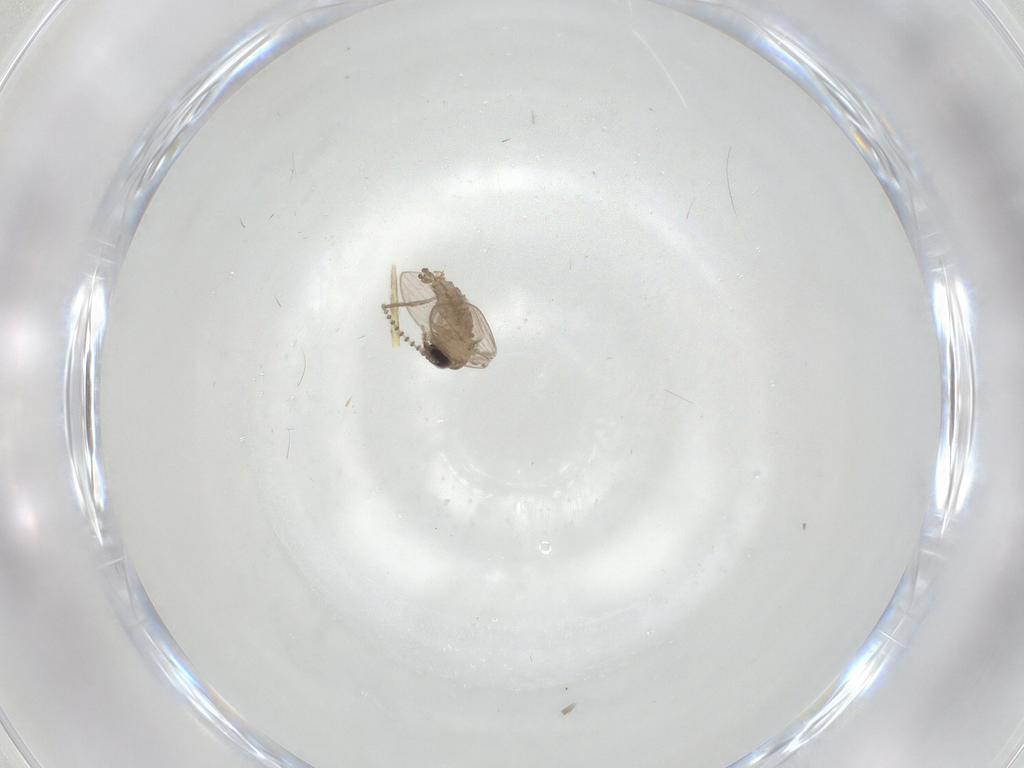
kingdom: Animalia
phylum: Arthropoda
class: Insecta
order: Diptera
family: Psychodidae
